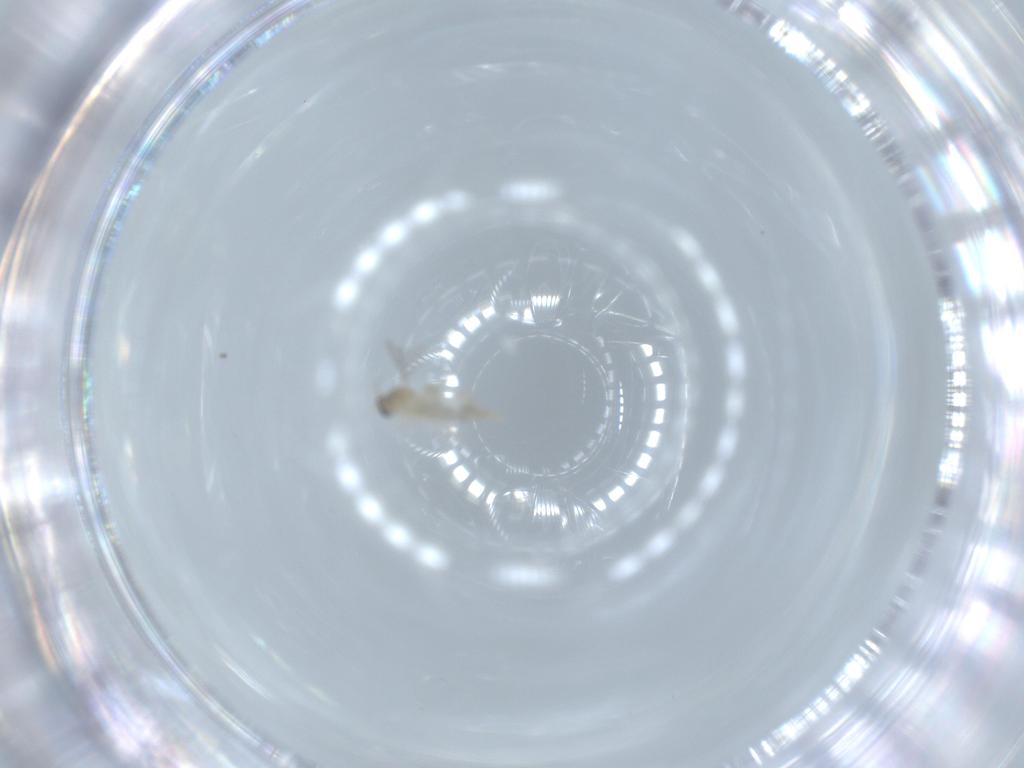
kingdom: Animalia
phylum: Arthropoda
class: Insecta
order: Diptera
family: Cecidomyiidae
